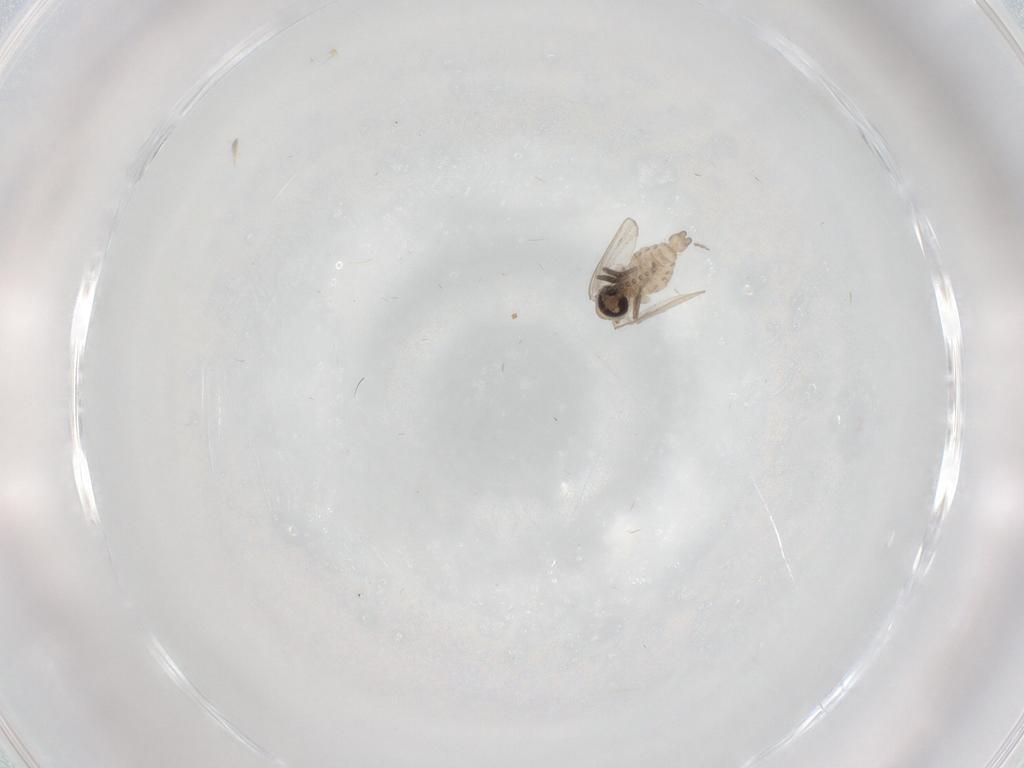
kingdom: Animalia
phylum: Arthropoda
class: Insecta
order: Diptera
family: Psychodidae
